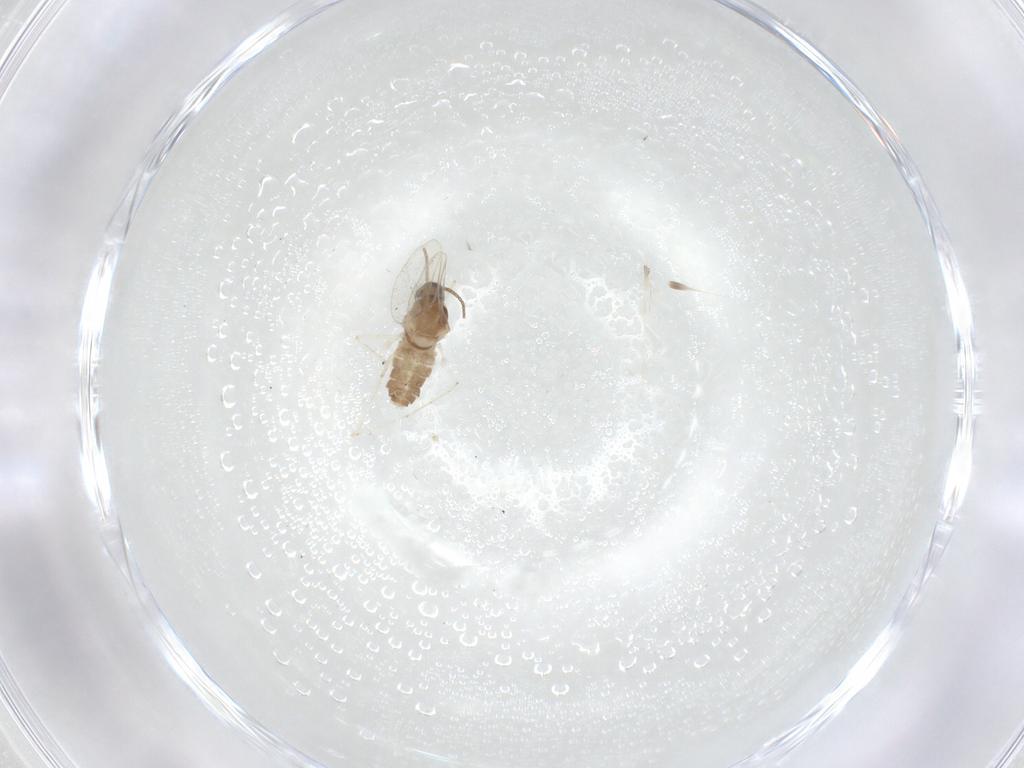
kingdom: Animalia
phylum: Arthropoda
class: Insecta
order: Diptera
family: Cecidomyiidae
